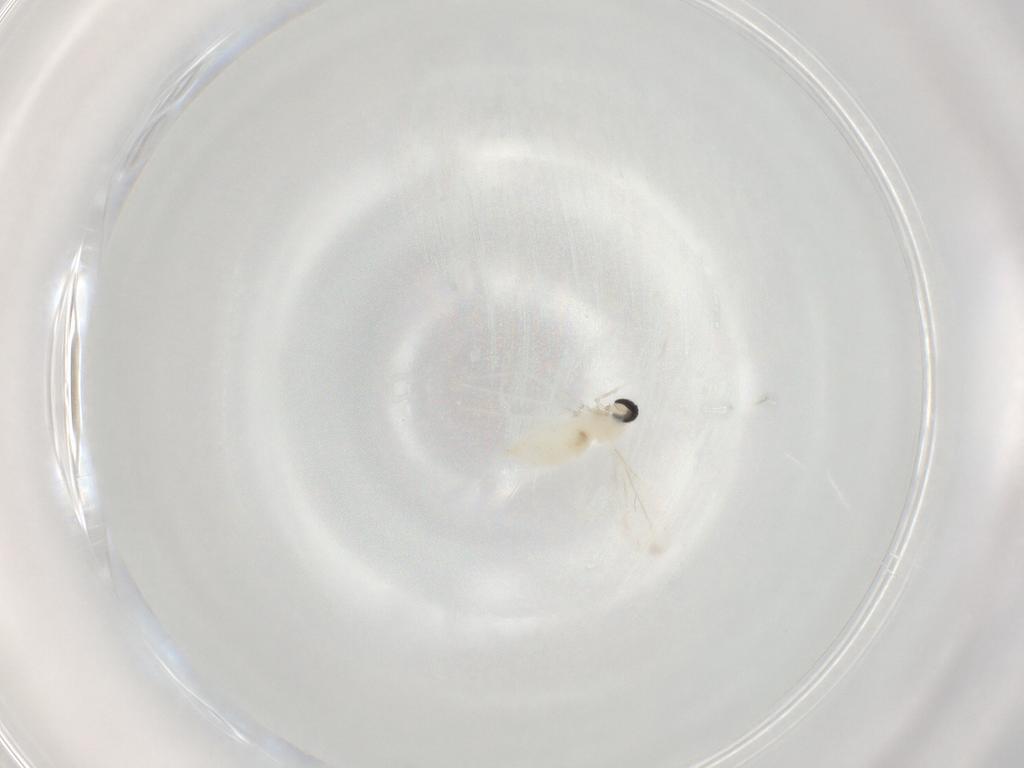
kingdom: Animalia
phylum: Arthropoda
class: Insecta
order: Diptera
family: Cecidomyiidae
